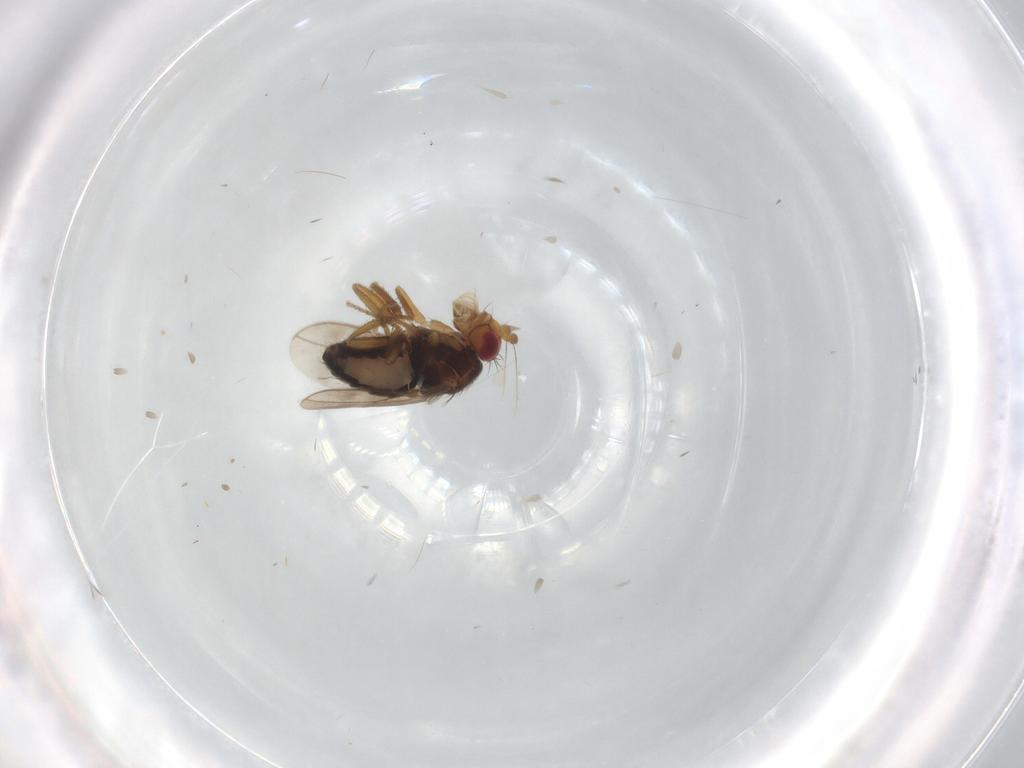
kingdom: Animalia
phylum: Arthropoda
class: Insecta
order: Diptera
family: Sphaeroceridae
